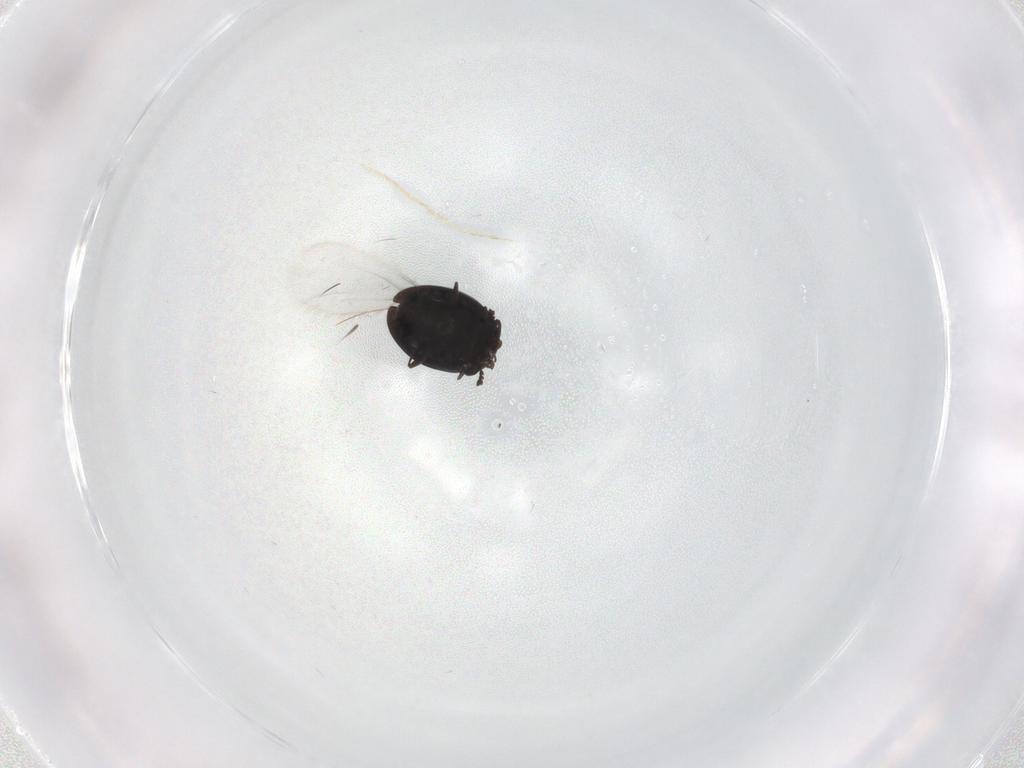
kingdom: Animalia
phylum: Arthropoda
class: Insecta
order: Coleoptera
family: Corylophidae
